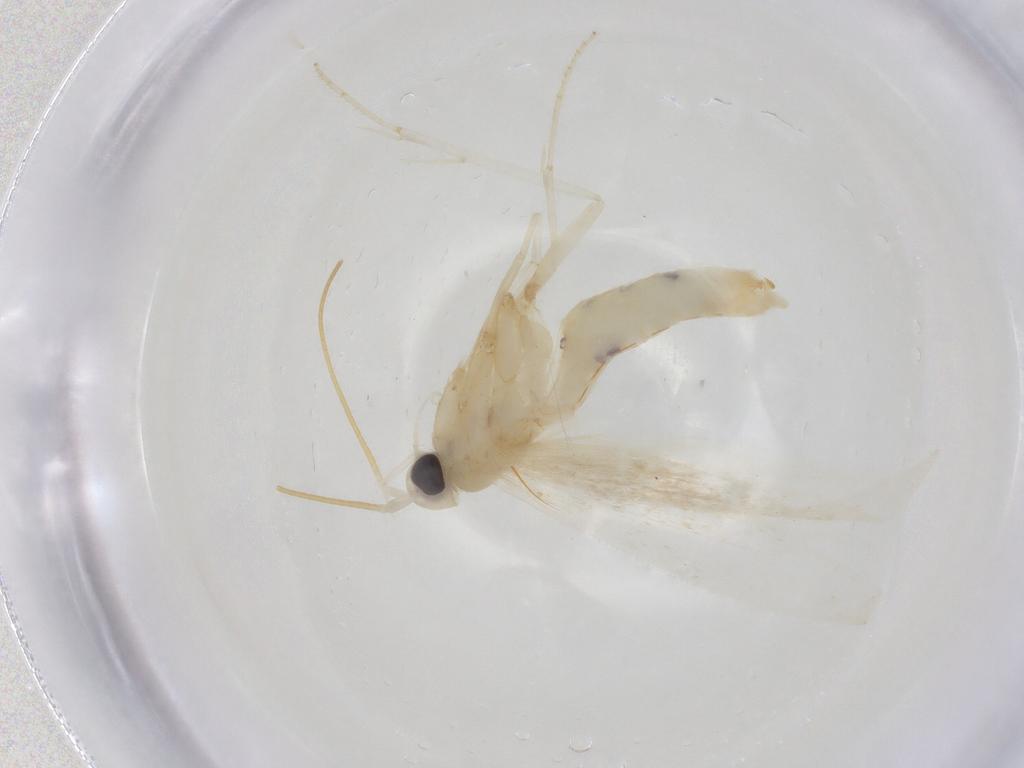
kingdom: Animalia
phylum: Arthropoda
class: Insecta
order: Lepidoptera
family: Coleophoridae
